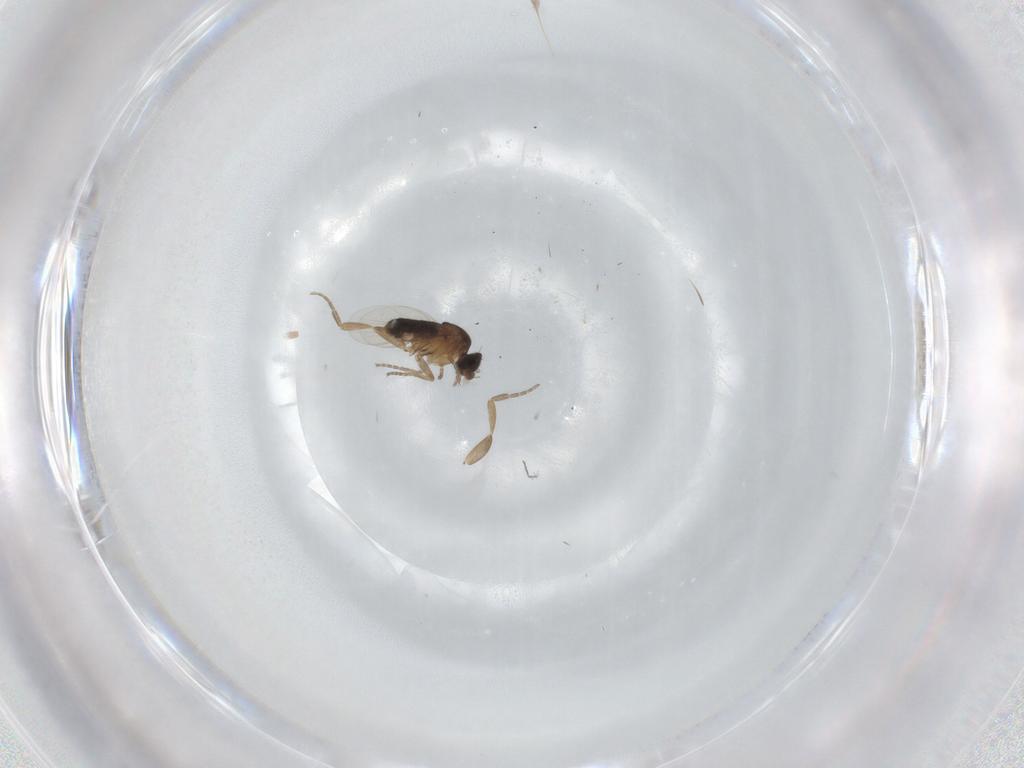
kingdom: Animalia
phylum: Arthropoda
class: Insecta
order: Diptera
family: Phoridae
